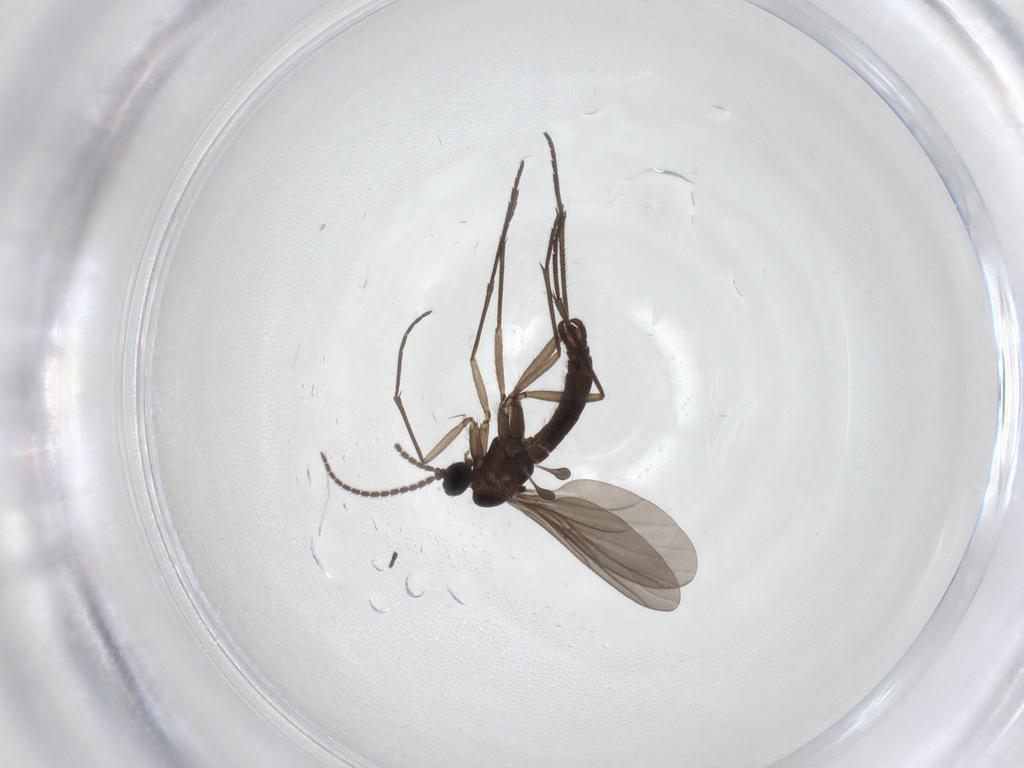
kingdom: Animalia
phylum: Arthropoda
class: Insecta
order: Diptera
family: Sciaridae
